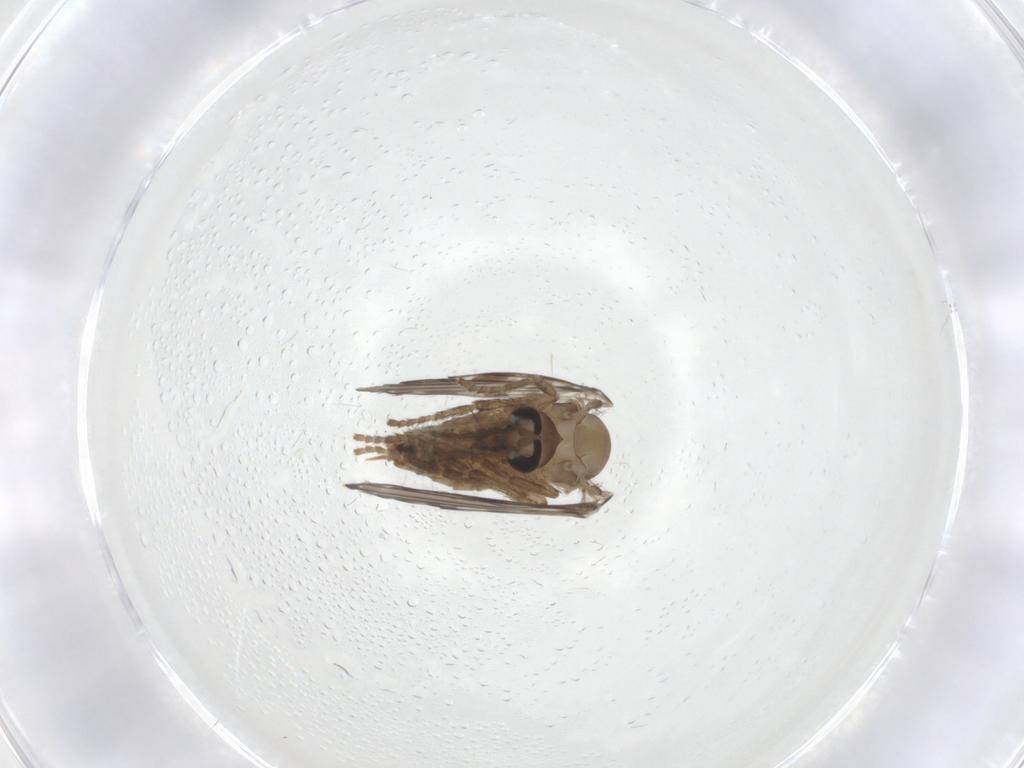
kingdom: Animalia
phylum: Arthropoda
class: Insecta
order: Diptera
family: Psychodidae
